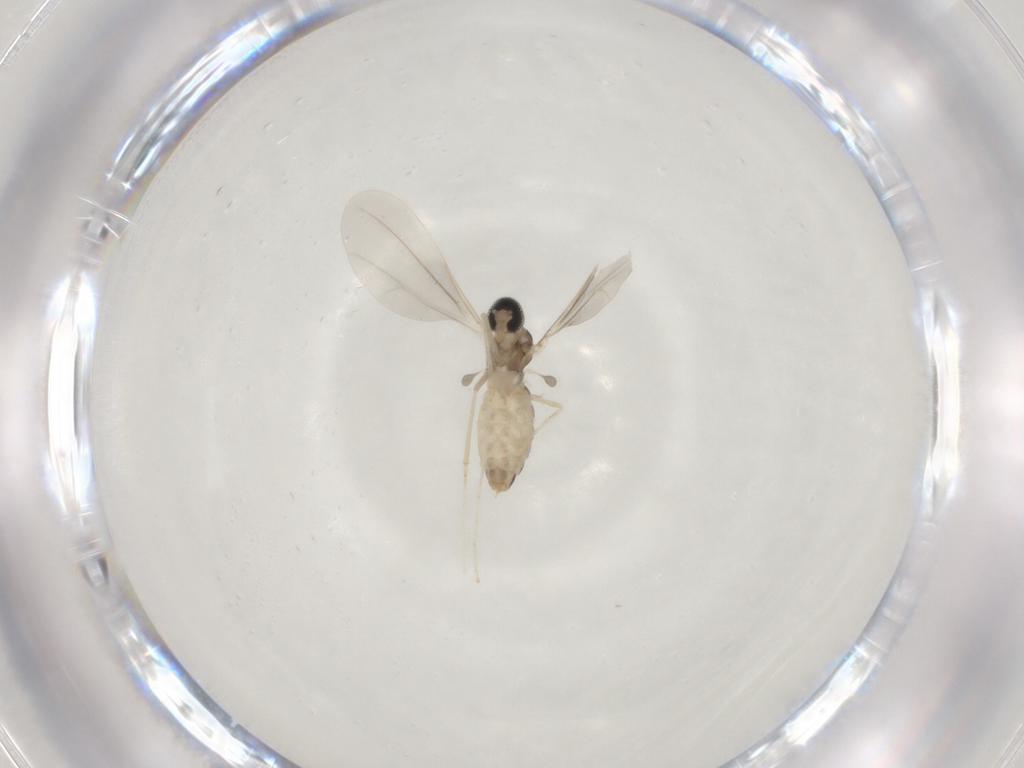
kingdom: Animalia
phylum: Arthropoda
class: Insecta
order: Diptera
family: Cecidomyiidae
